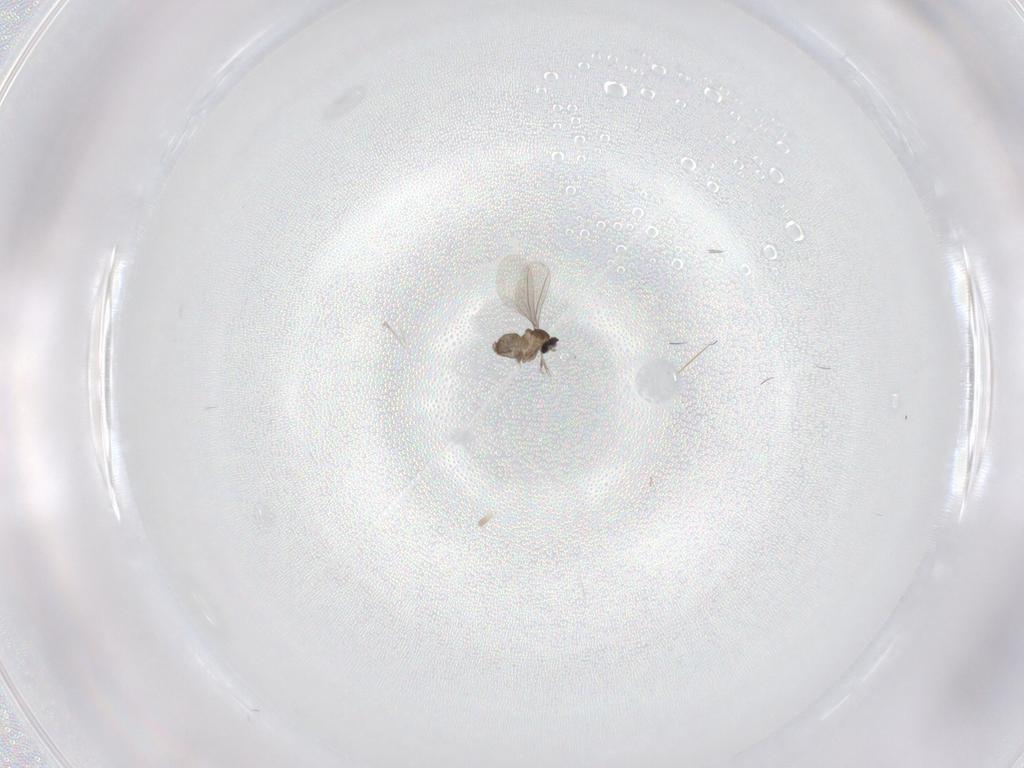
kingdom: Animalia
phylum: Arthropoda
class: Insecta
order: Diptera
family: Cecidomyiidae
